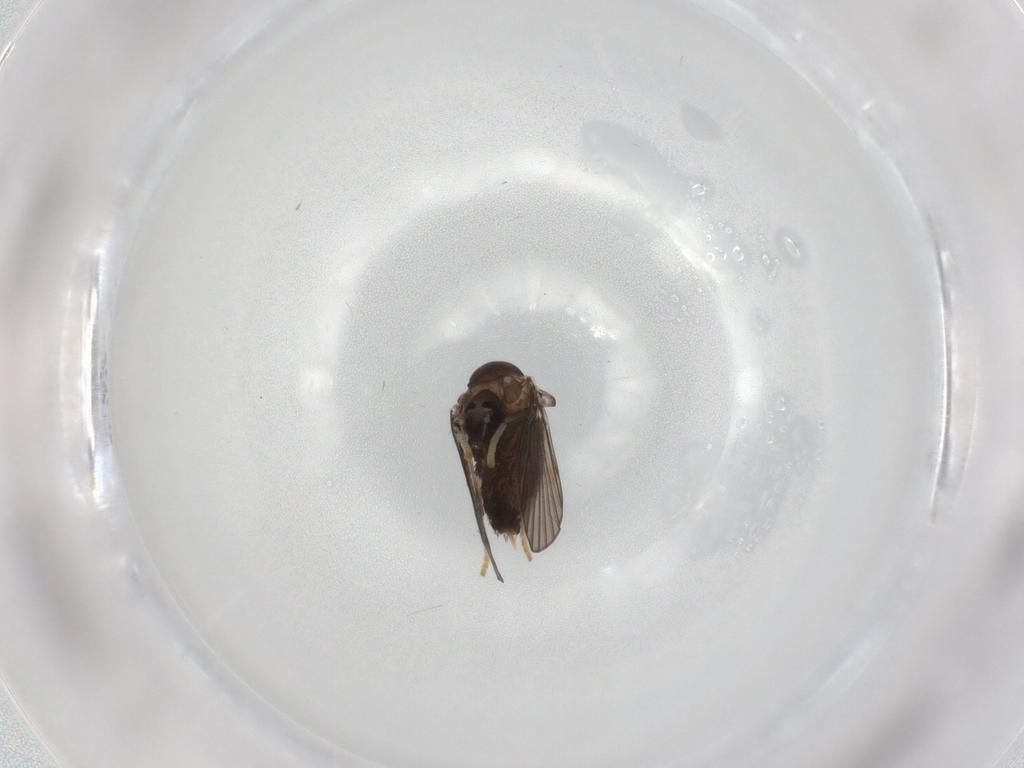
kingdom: Animalia
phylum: Arthropoda
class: Insecta
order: Diptera
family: Psychodidae
